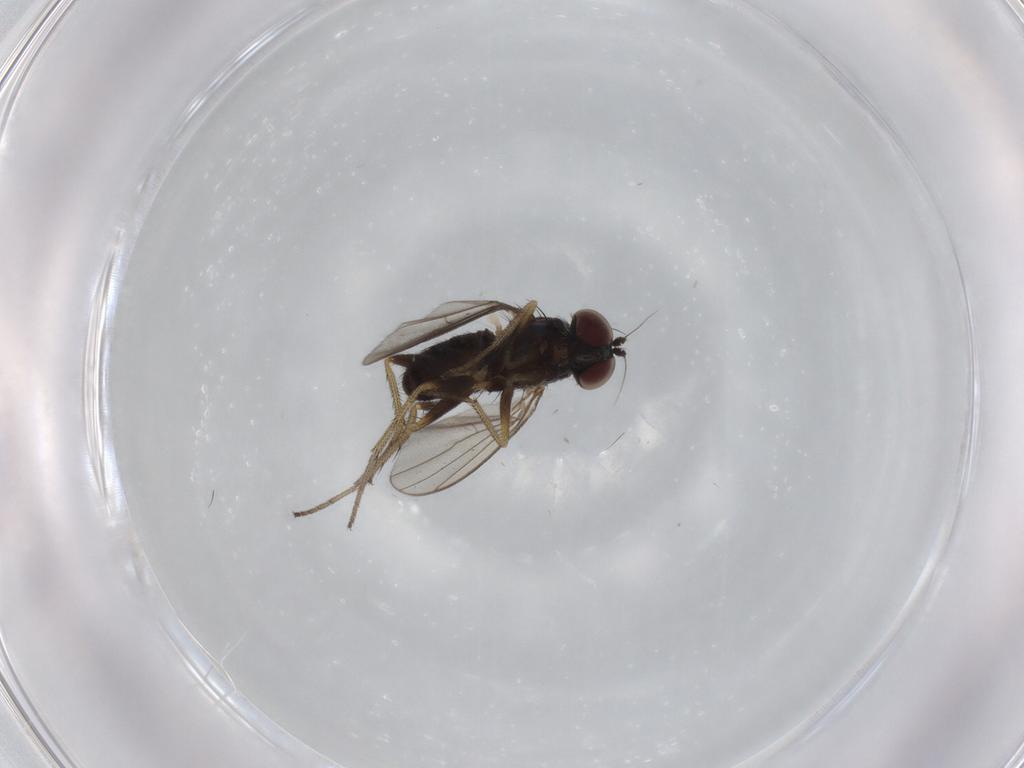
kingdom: Animalia
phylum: Arthropoda
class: Insecta
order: Diptera
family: Dolichopodidae
